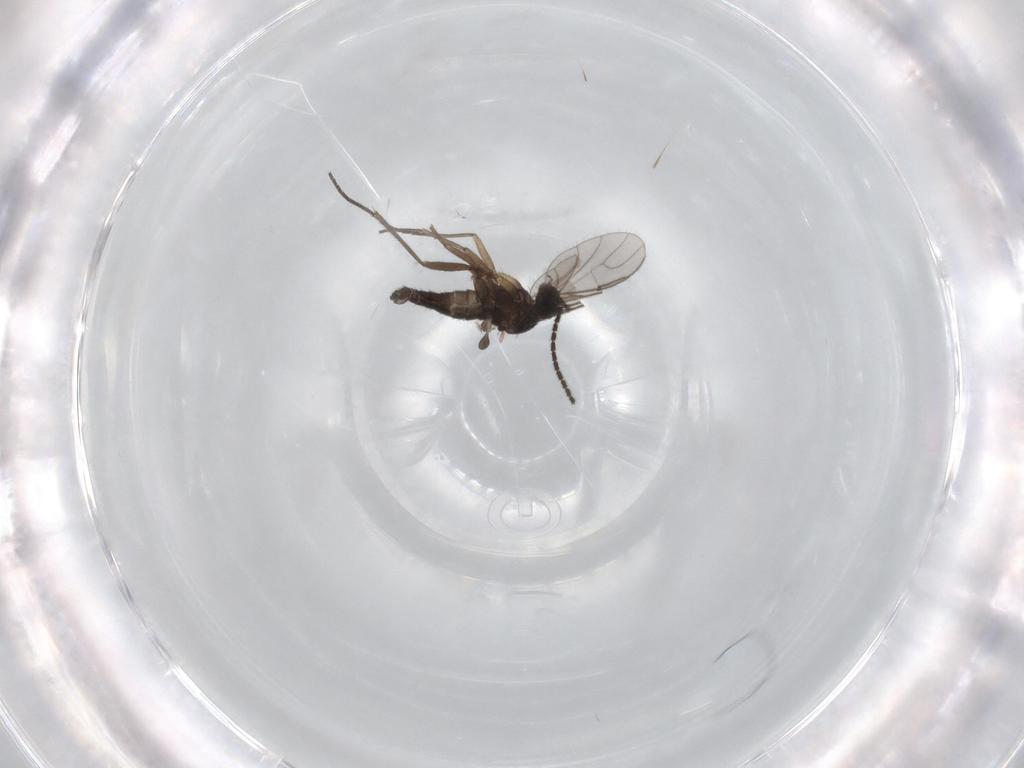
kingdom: Animalia
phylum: Arthropoda
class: Insecta
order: Diptera
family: Sciaridae
